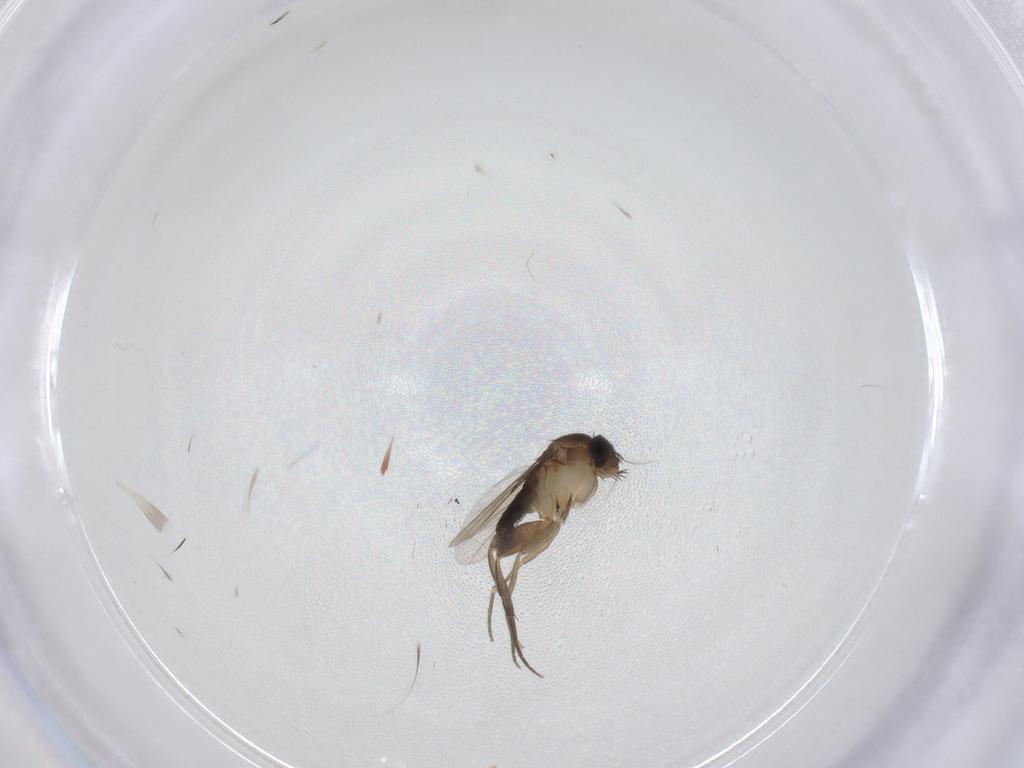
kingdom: Animalia
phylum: Arthropoda
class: Insecta
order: Diptera
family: Phoridae
